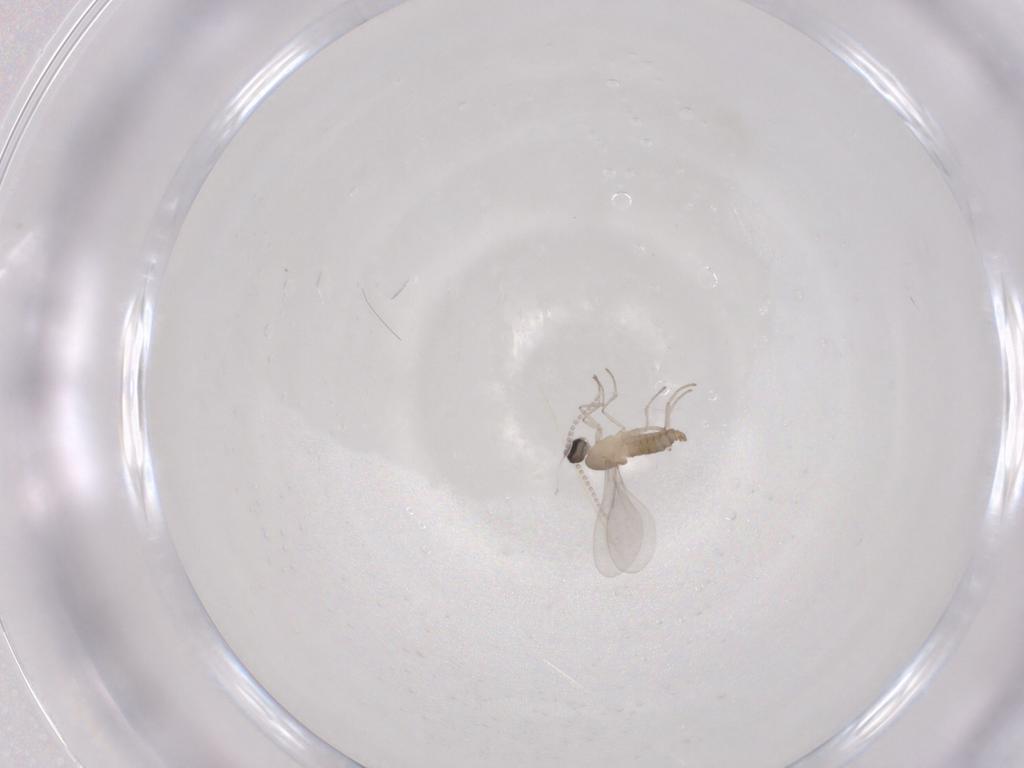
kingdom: Animalia
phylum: Arthropoda
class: Insecta
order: Diptera
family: Cecidomyiidae
